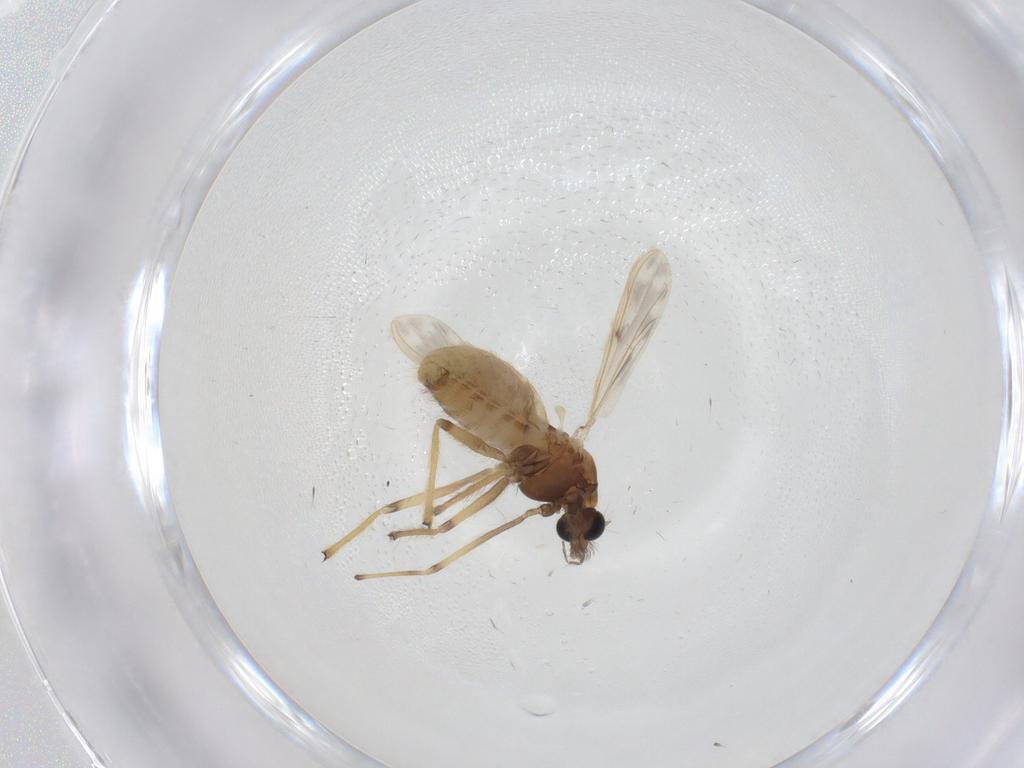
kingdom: Animalia
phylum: Arthropoda
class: Insecta
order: Diptera
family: Chironomidae
